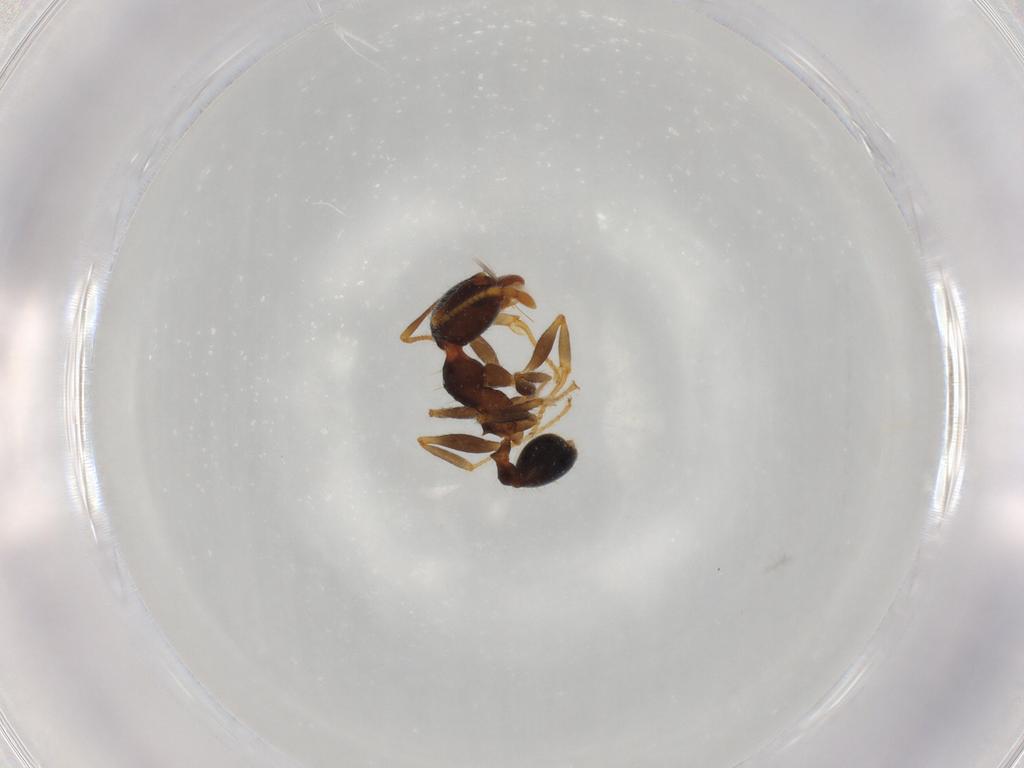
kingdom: Animalia
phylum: Arthropoda
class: Insecta
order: Hymenoptera
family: Formicidae
